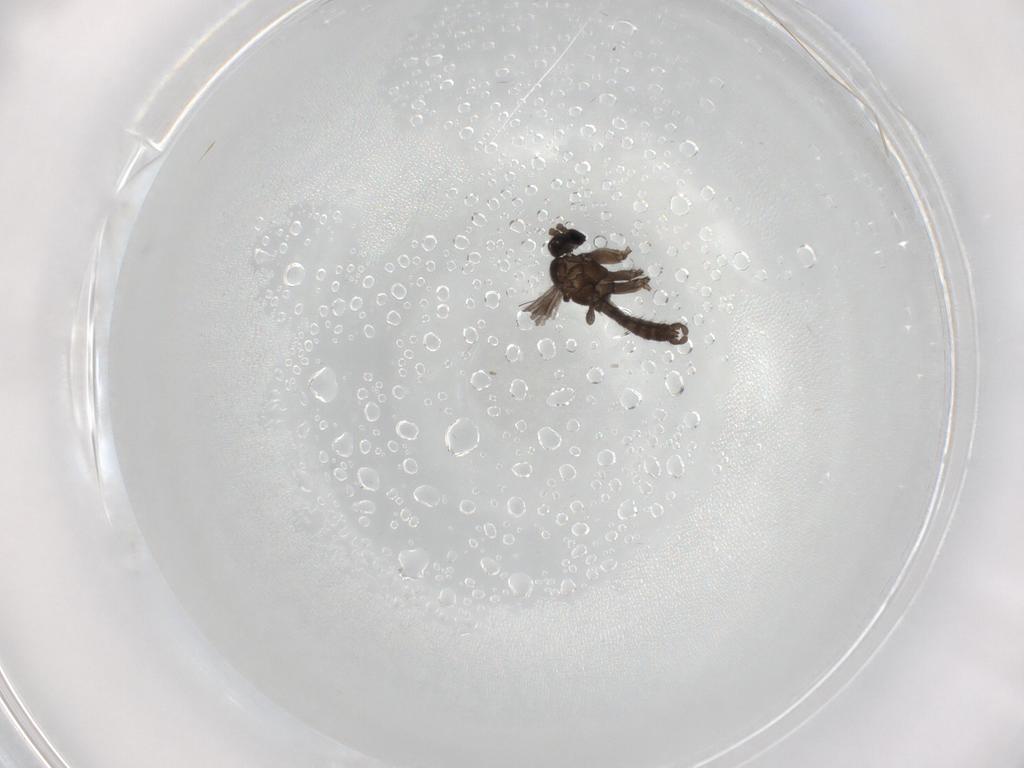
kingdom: Animalia
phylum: Arthropoda
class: Insecta
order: Diptera
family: Sciaridae
